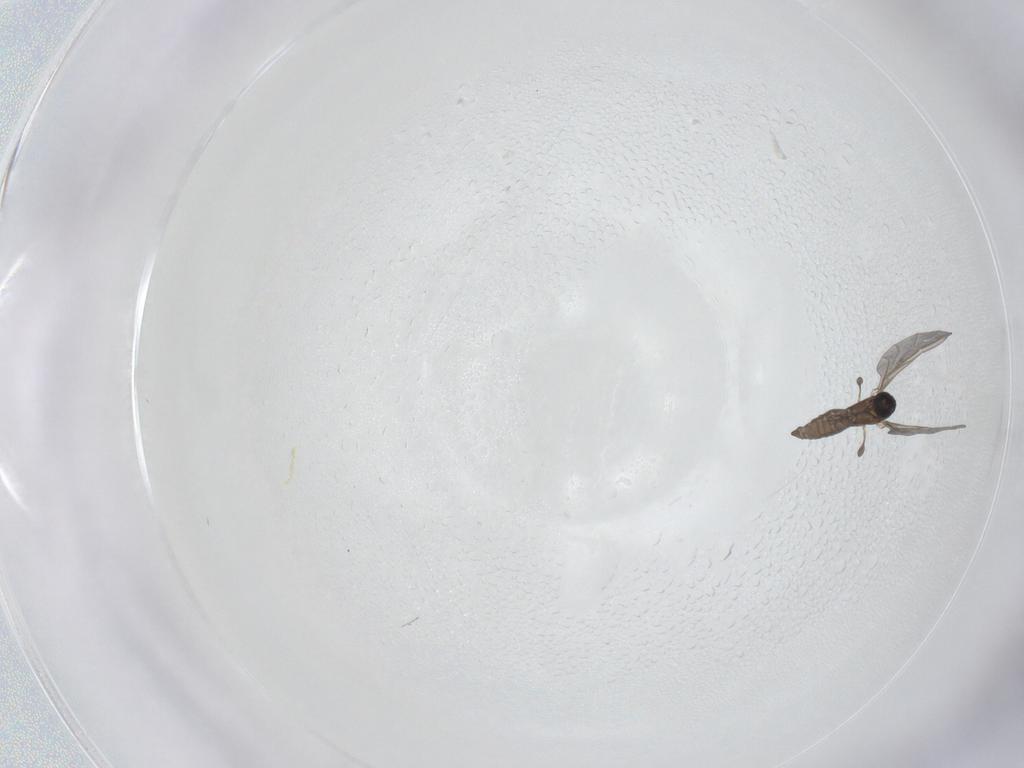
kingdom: Animalia
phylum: Arthropoda
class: Insecta
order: Diptera
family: Sciaridae
